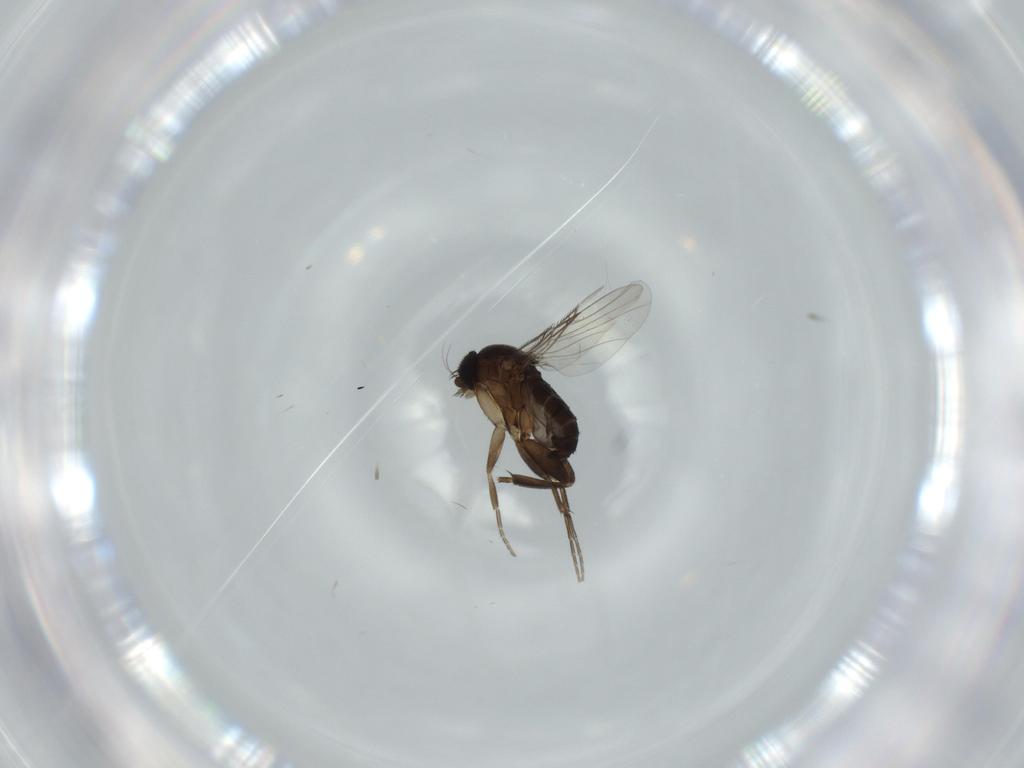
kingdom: Animalia
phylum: Arthropoda
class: Insecta
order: Diptera
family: Phoridae
